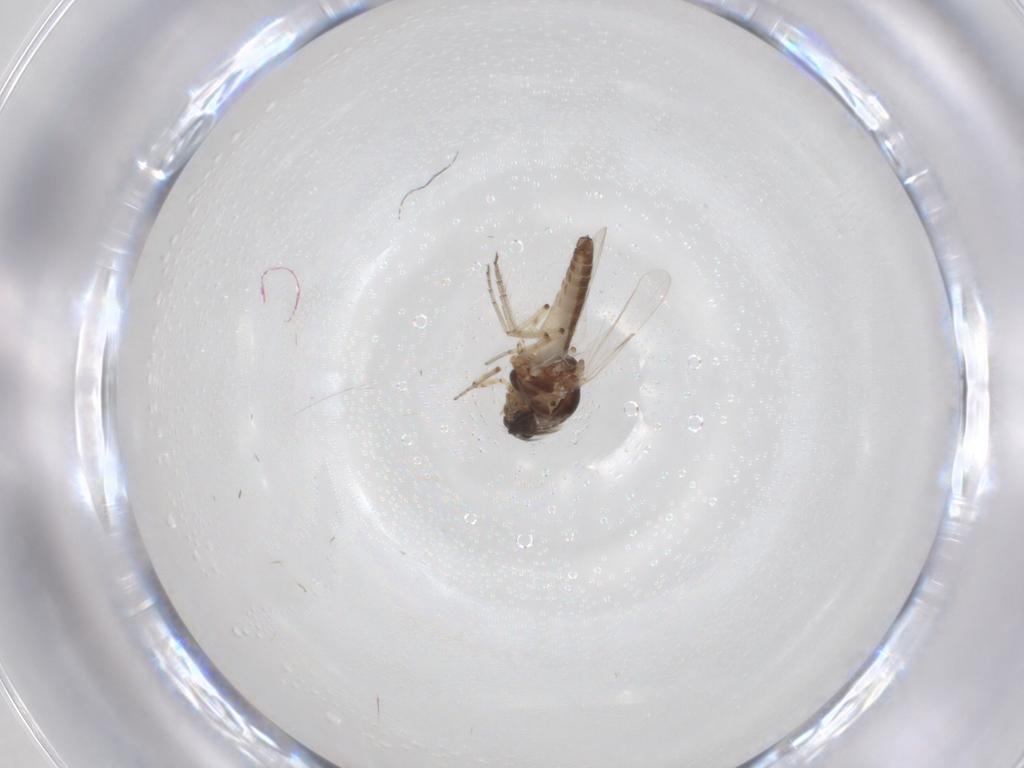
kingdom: Animalia
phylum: Arthropoda
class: Insecta
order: Diptera
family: Ceratopogonidae
